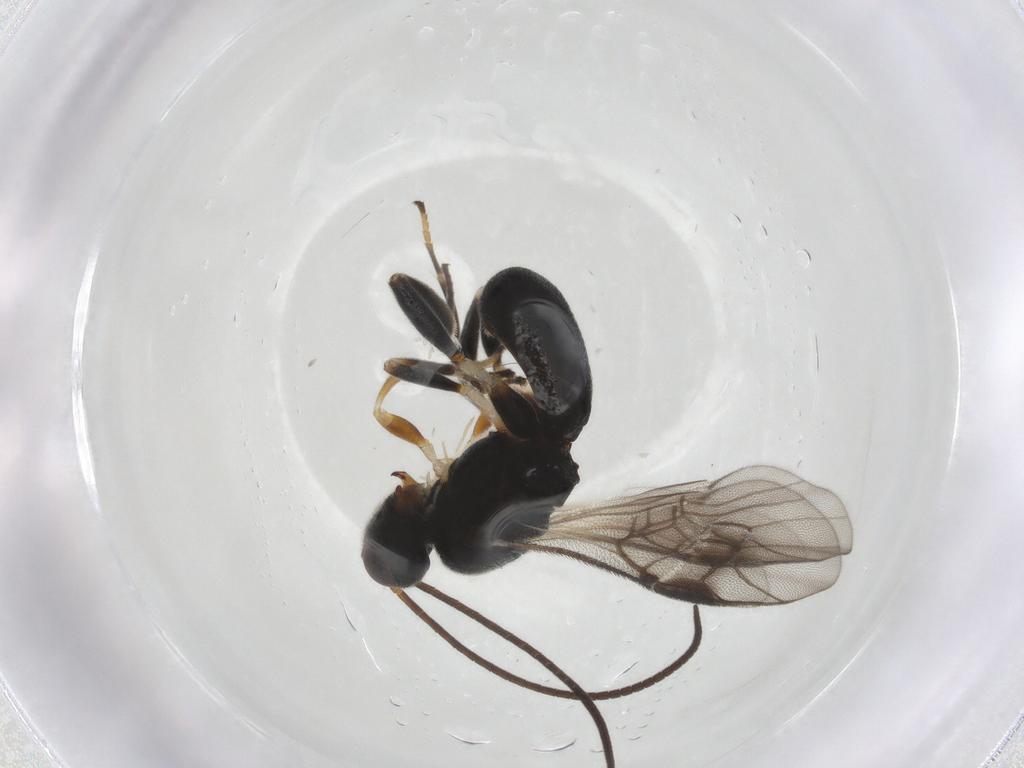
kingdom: Animalia
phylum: Arthropoda
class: Insecta
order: Hymenoptera
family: Braconidae
